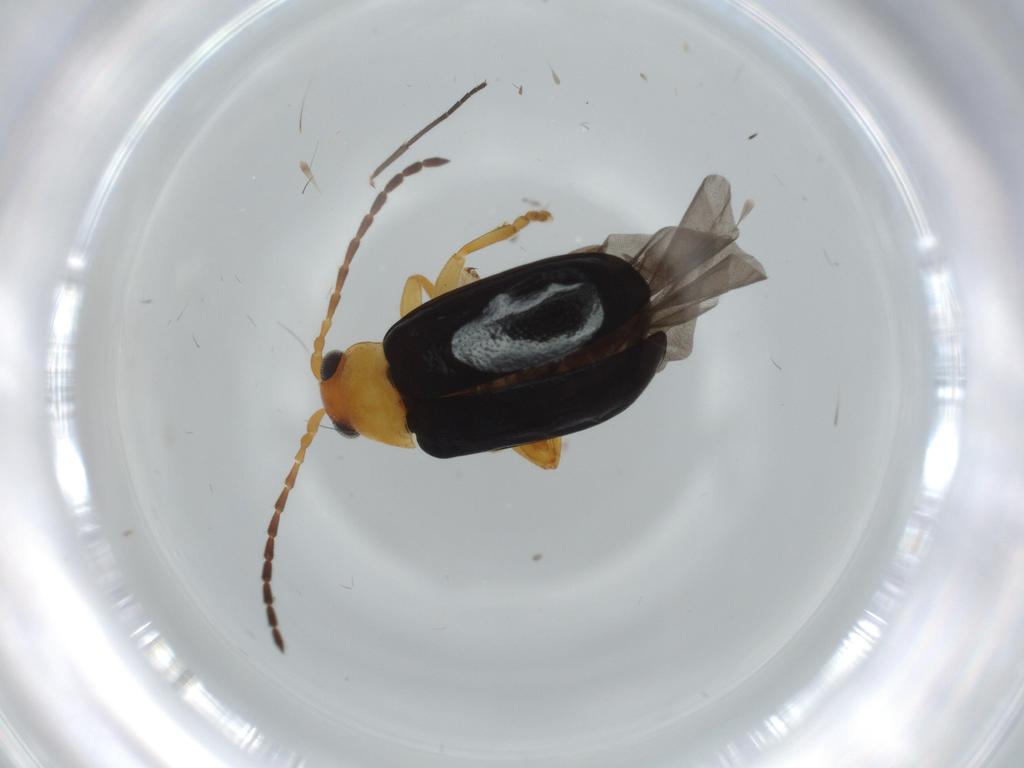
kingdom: Animalia
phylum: Arthropoda
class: Insecta
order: Coleoptera
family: Chrysomelidae
